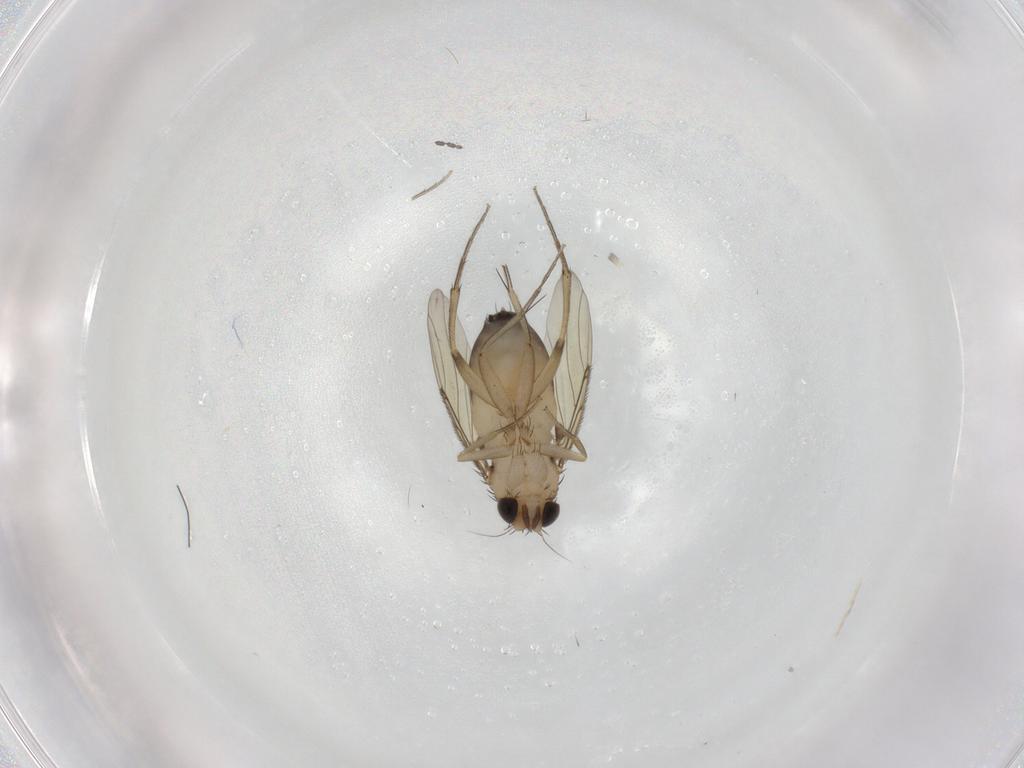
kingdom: Animalia
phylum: Arthropoda
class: Insecta
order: Diptera
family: Phoridae
